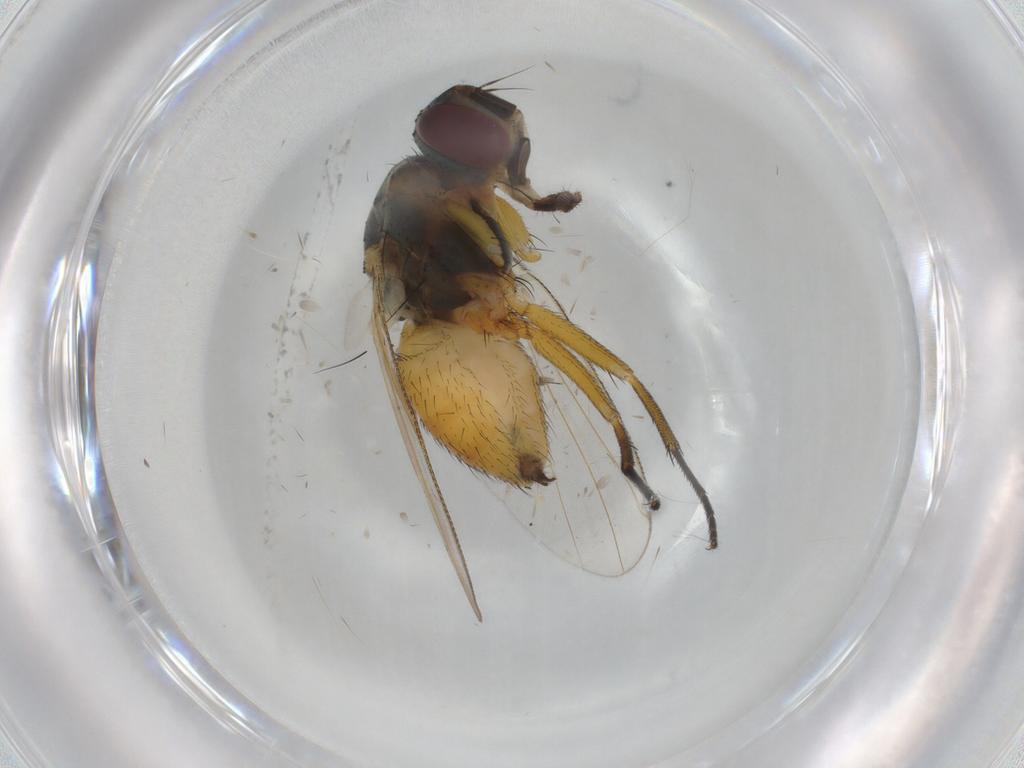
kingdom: Animalia
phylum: Arthropoda
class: Insecta
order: Diptera
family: Muscidae
